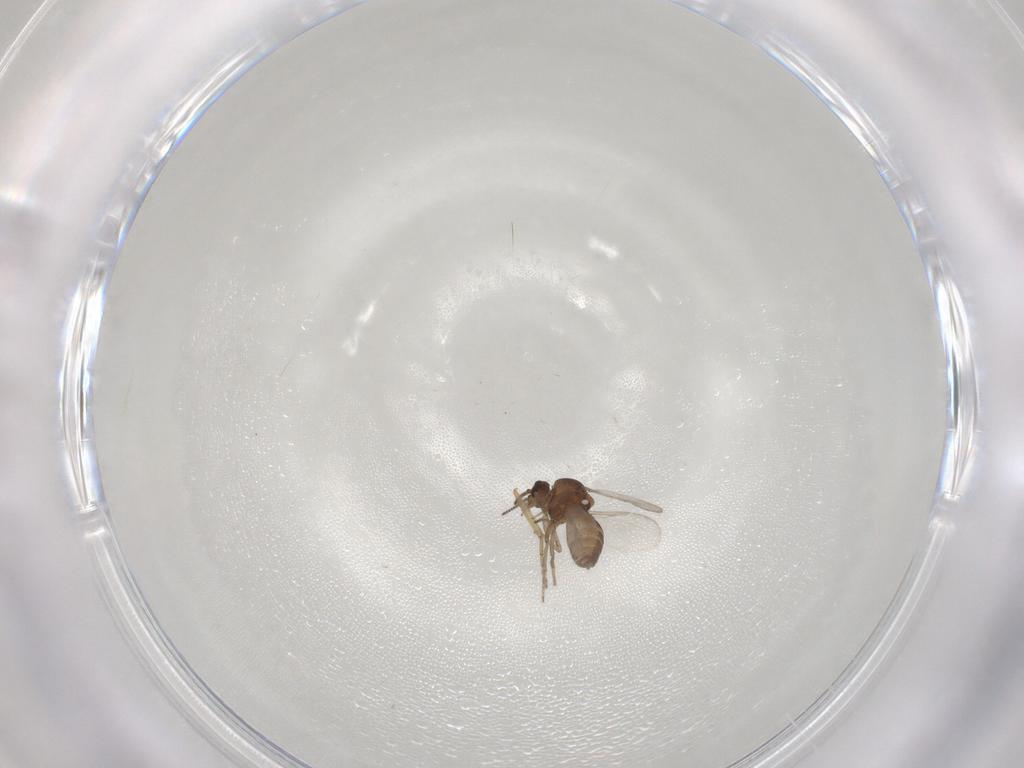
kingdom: Animalia
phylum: Arthropoda
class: Insecta
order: Diptera
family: Ceratopogonidae
